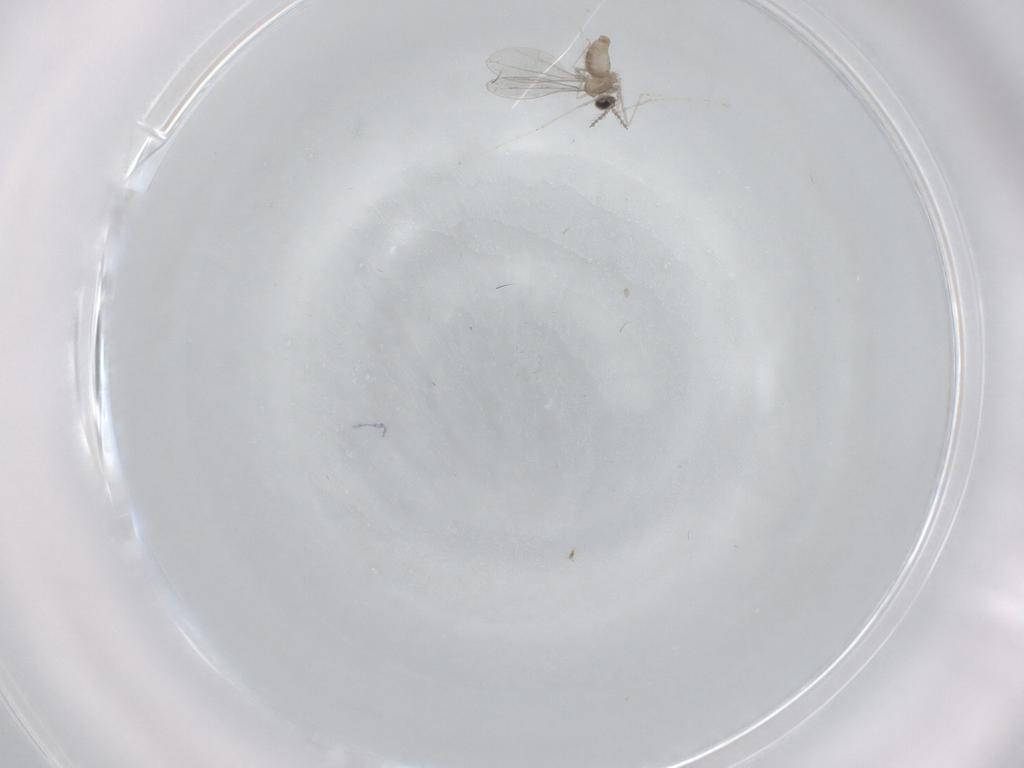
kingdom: Animalia
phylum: Arthropoda
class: Insecta
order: Diptera
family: Cecidomyiidae
